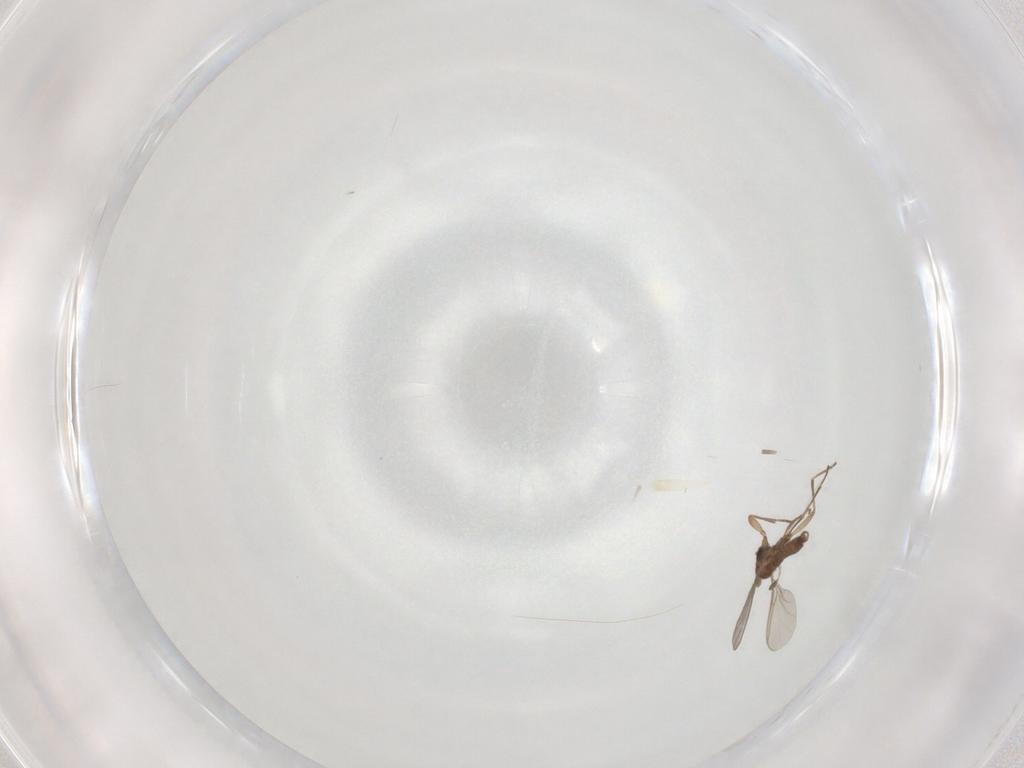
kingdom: Animalia
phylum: Arthropoda
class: Insecta
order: Diptera
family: Sciaridae
